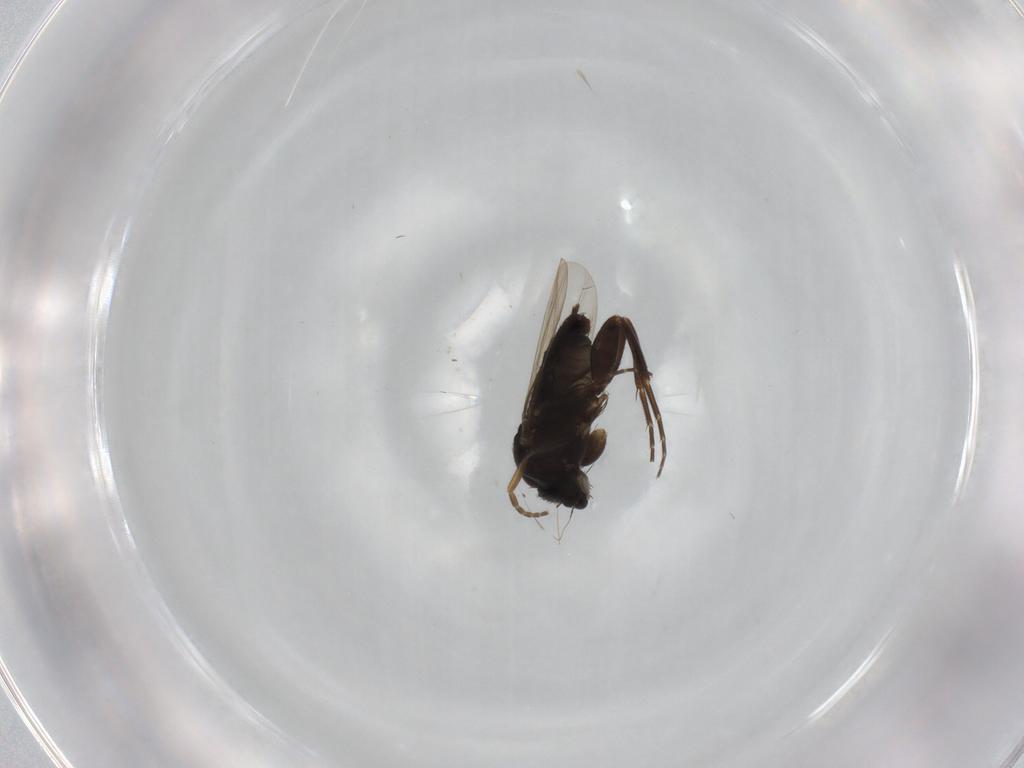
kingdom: Animalia
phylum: Arthropoda
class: Insecta
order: Diptera
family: Phoridae
